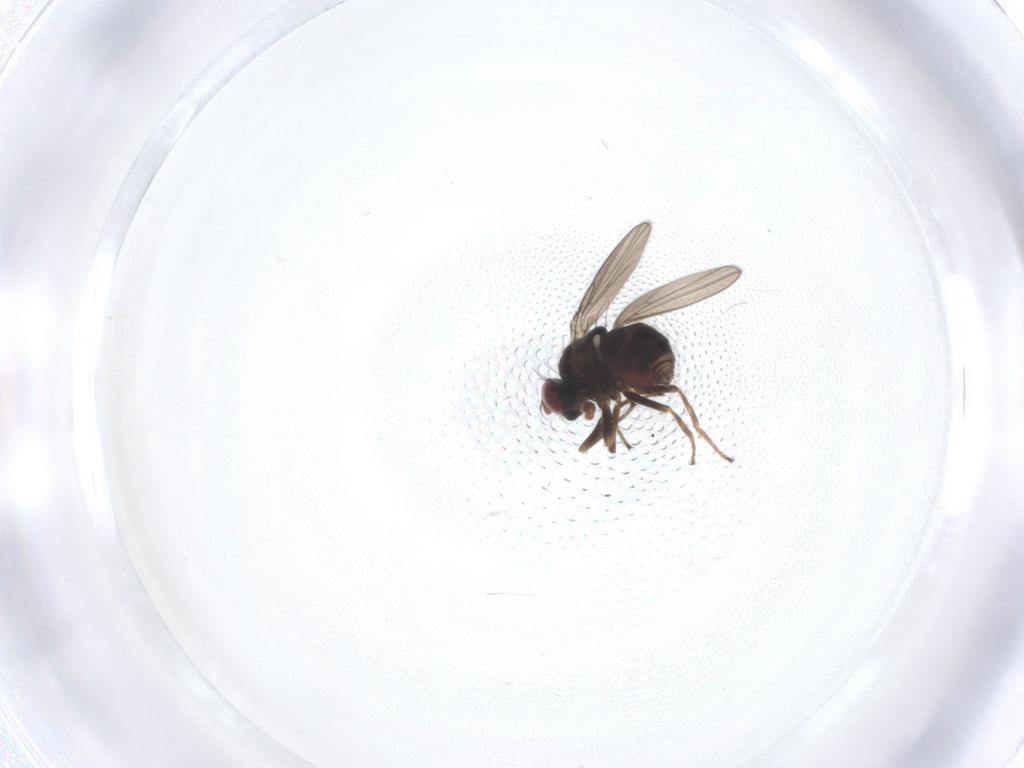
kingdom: Animalia
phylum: Arthropoda
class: Insecta
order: Diptera
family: Ephydridae
